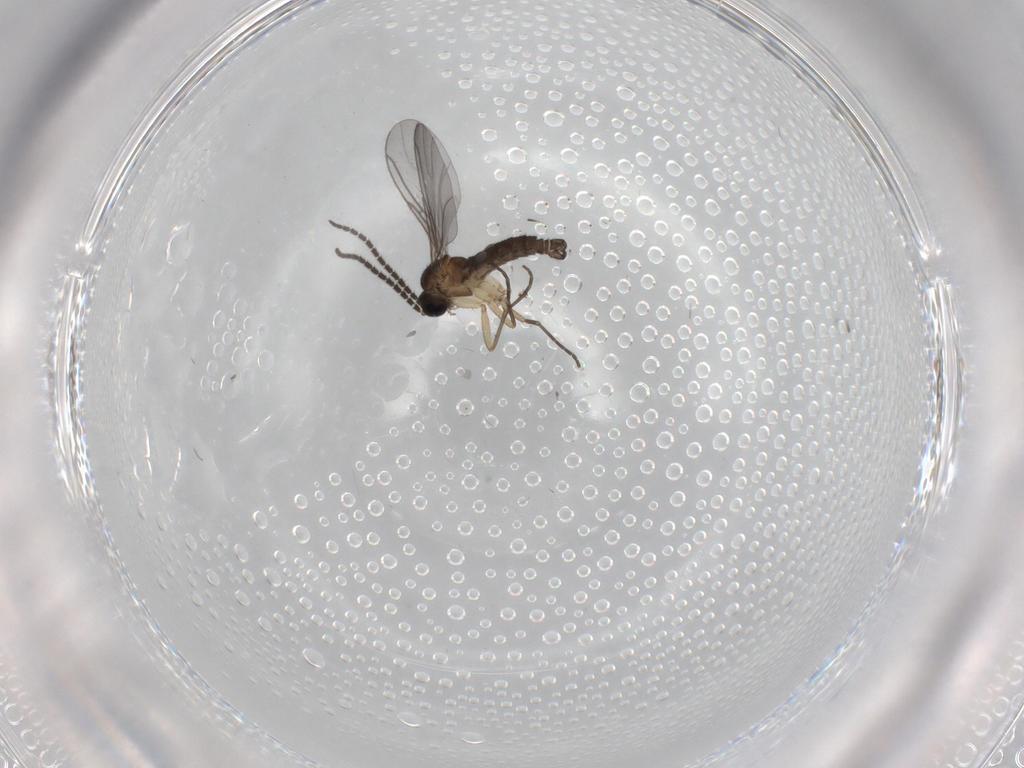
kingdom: Animalia
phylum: Arthropoda
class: Insecta
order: Diptera
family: Sciaridae
